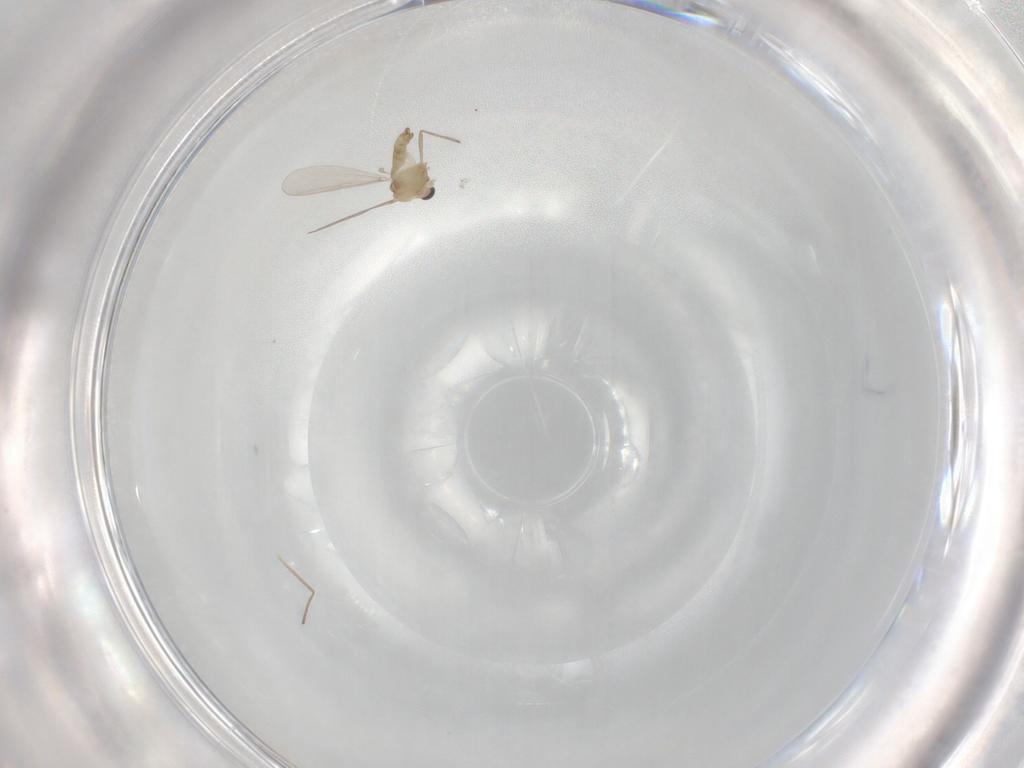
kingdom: Animalia
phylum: Arthropoda
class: Insecta
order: Diptera
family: Chironomidae
